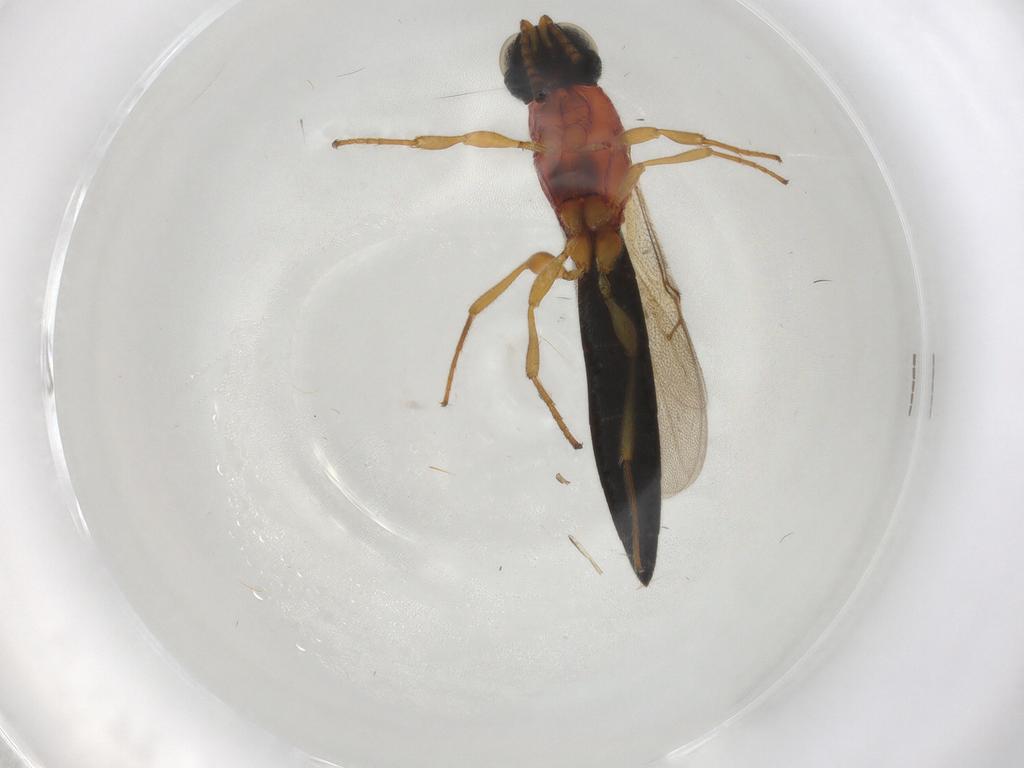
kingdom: Animalia
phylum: Arthropoda
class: Insecta
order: Diptera
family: Sciaridae
